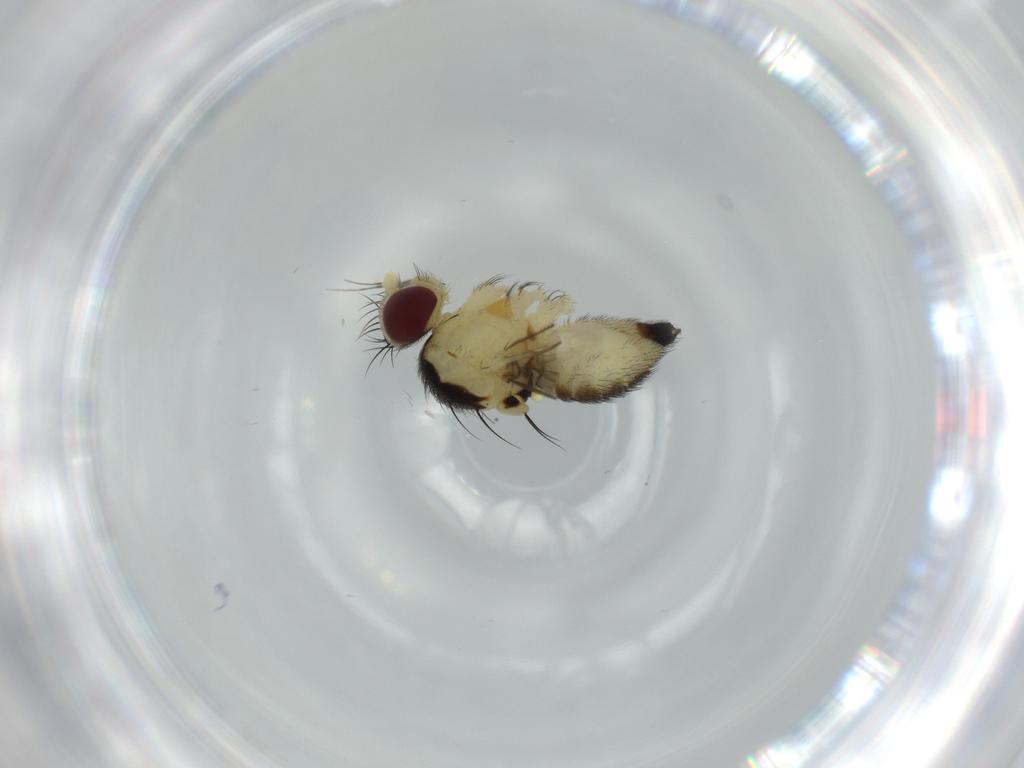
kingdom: Animalia
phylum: Arthropoda
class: Insecta
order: Diptera
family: Agromyzidae
